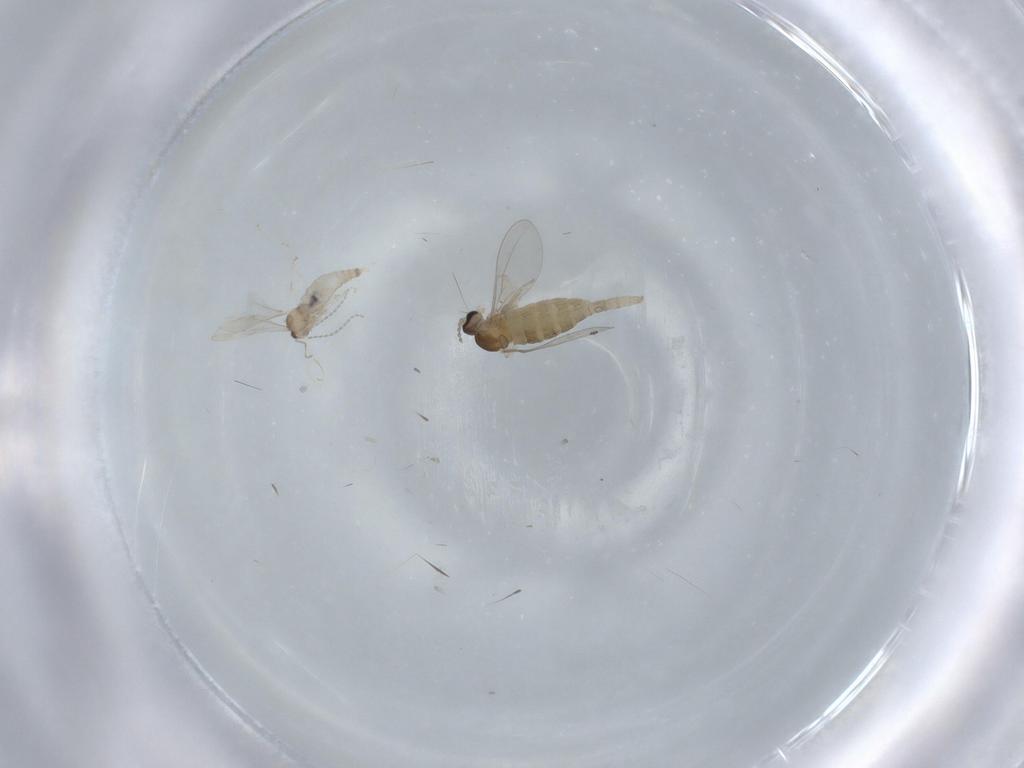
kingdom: Animalia
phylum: Arthropoda
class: Insecta
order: Diptera
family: Cecidomyiidae
